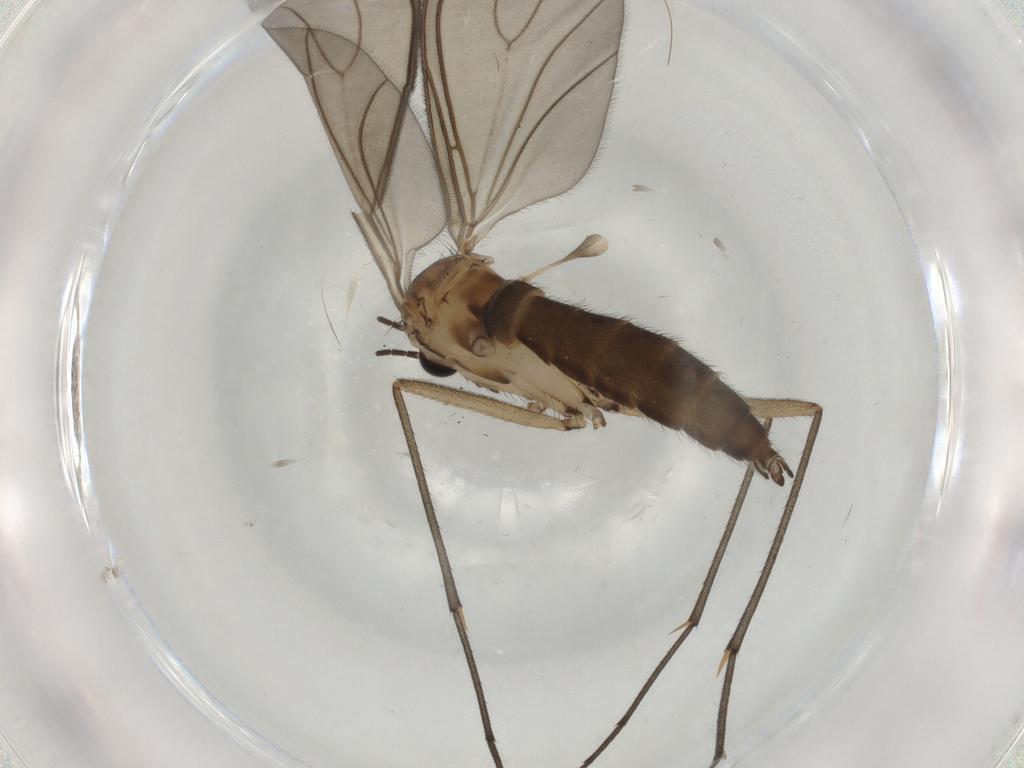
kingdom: Animalia
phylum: Arthropoda
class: Insecta
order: Diptera
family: Sciaridae
